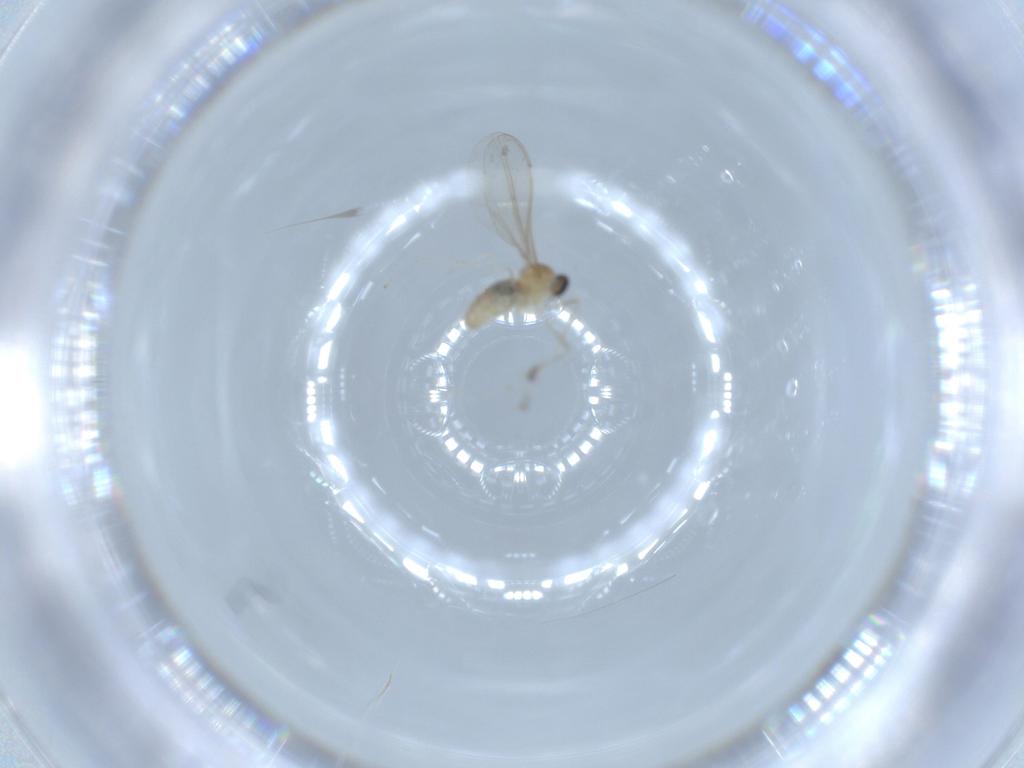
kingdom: Animalia
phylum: Arthropoda
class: Insecta
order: Diptera
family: Cecidomyiidae
